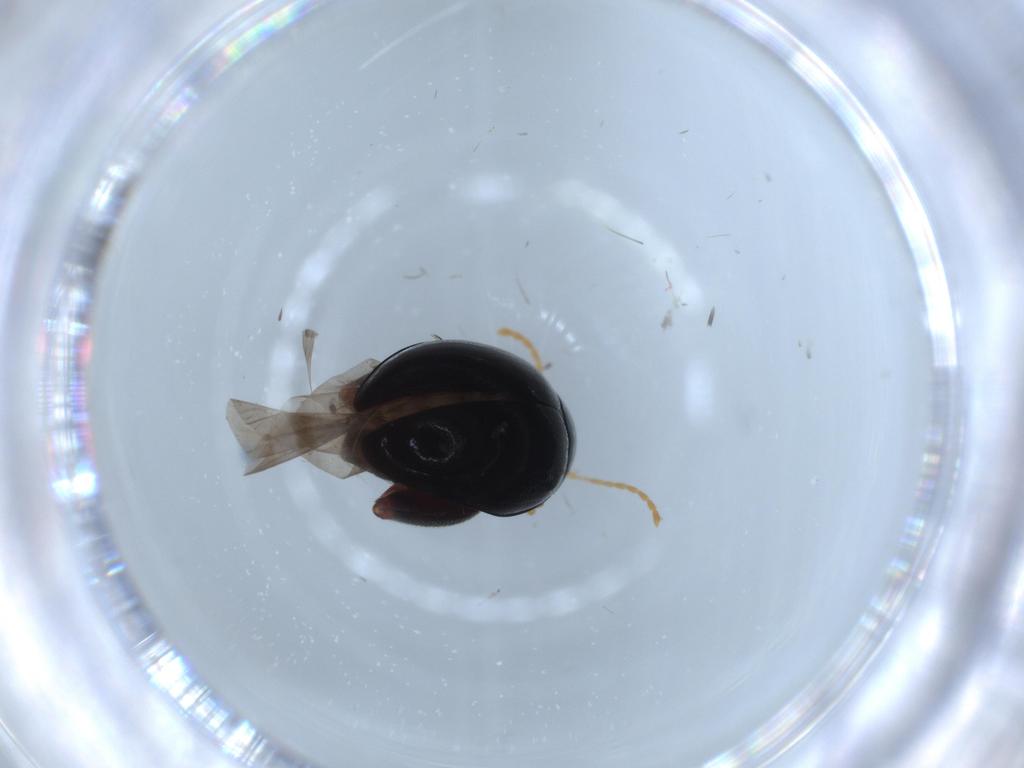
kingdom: Animalia
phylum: Arthropoda
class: Insecta
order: Coleoptera
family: Chrysomelidae
